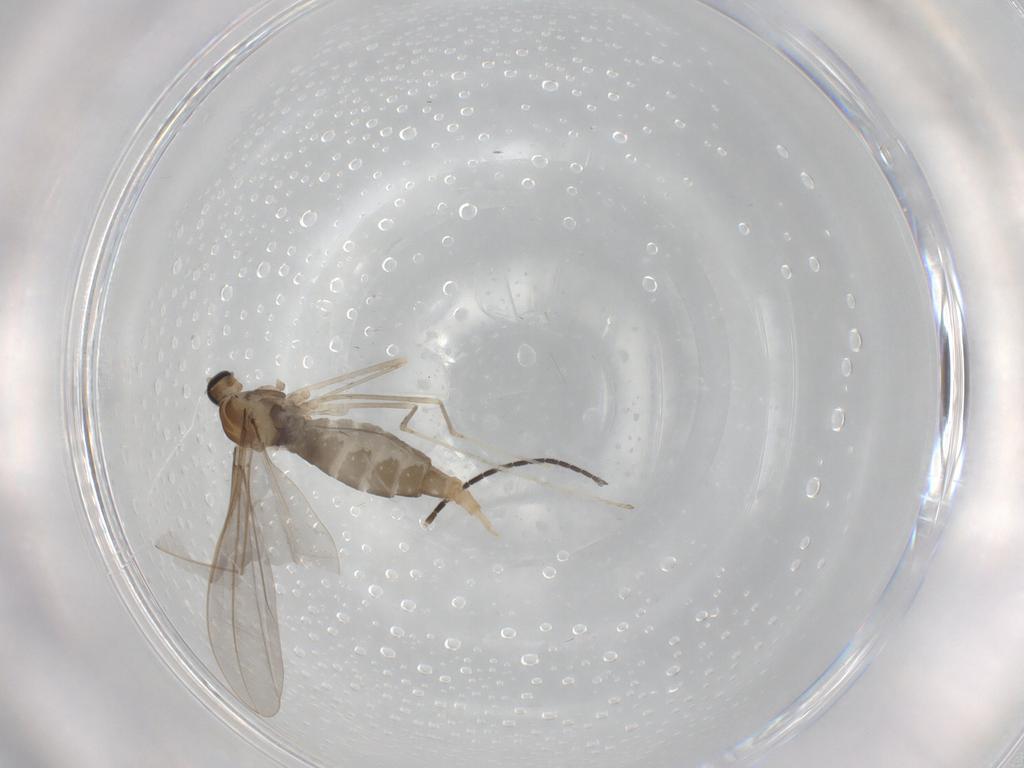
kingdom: Animalia
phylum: Arthropoda
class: Insecta
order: Diptera
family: Cecidomyiidae
